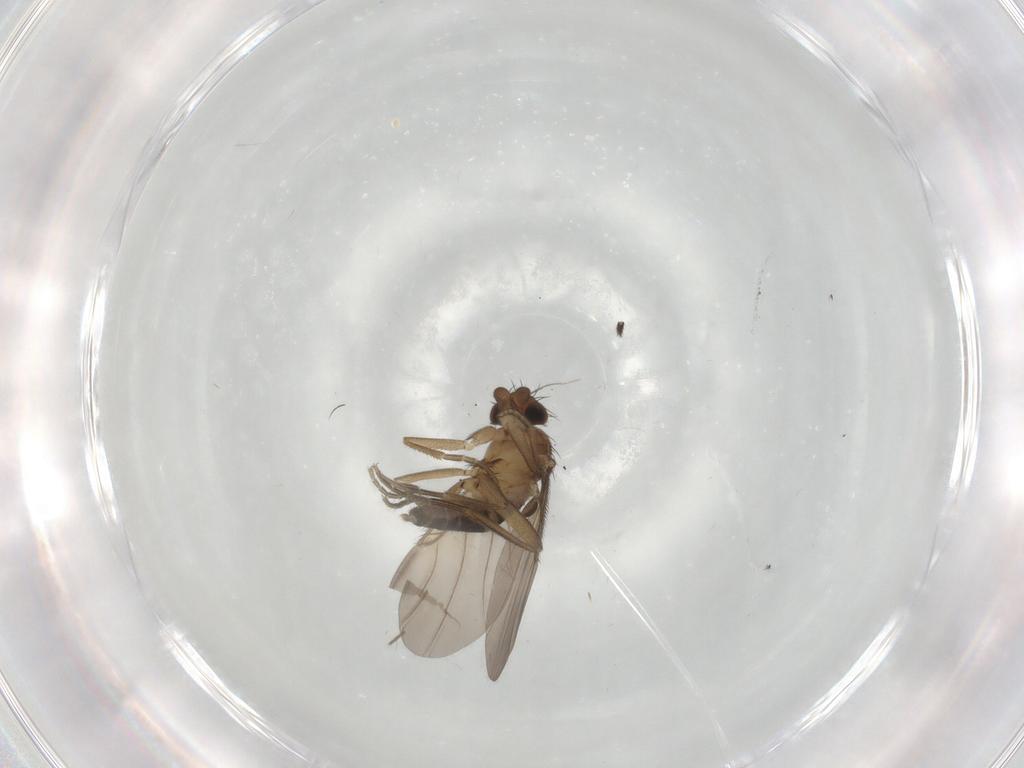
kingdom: Animalia
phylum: Arthropoda
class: Insecta
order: Diptera
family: Phoridae
